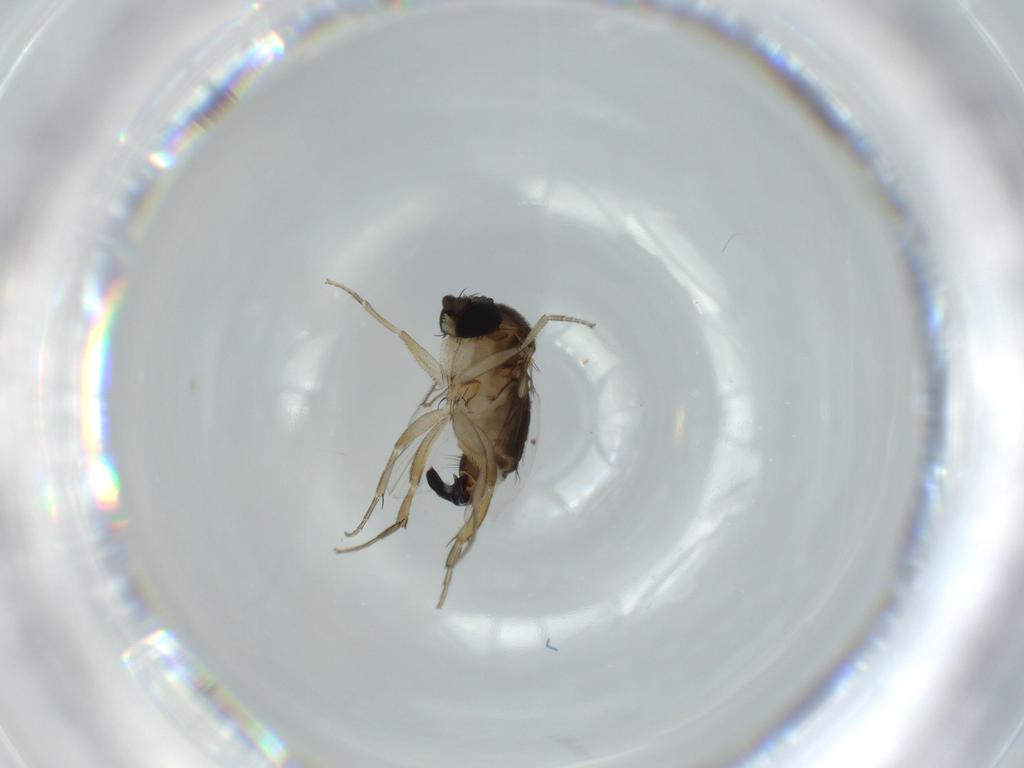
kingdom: Animalia
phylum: Arthropoda
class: Insecta
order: Diptera
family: Phoridae
